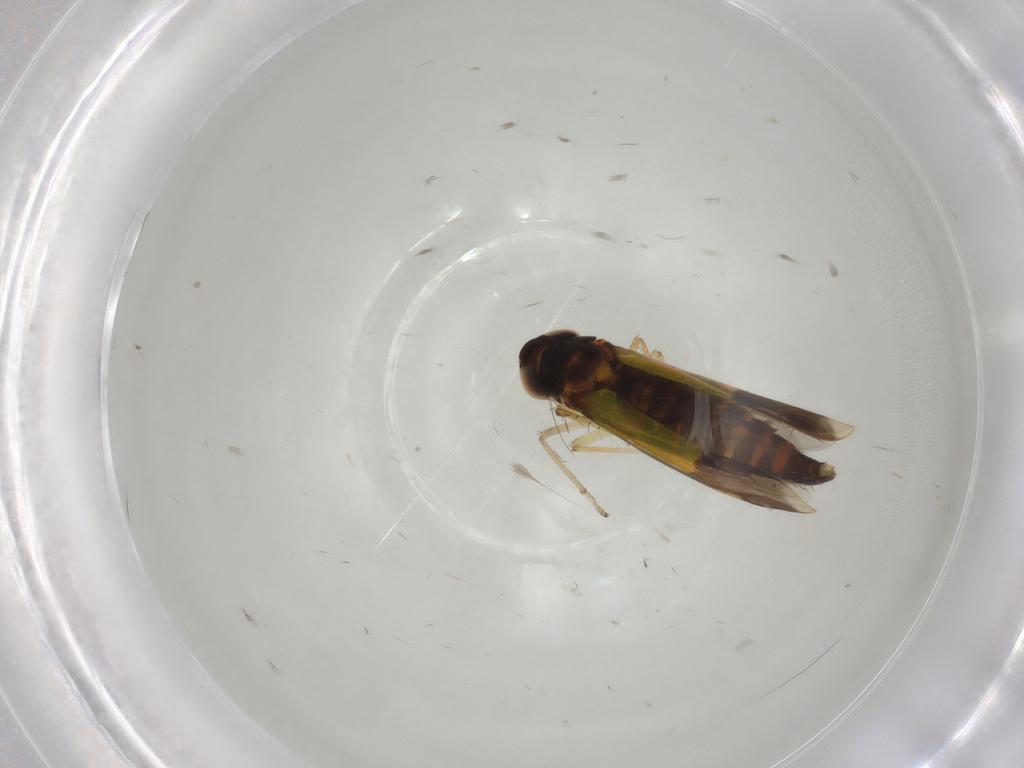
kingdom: Animalia
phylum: Arthropoda
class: Insecta
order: Hemiptera
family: Cicadellidae
